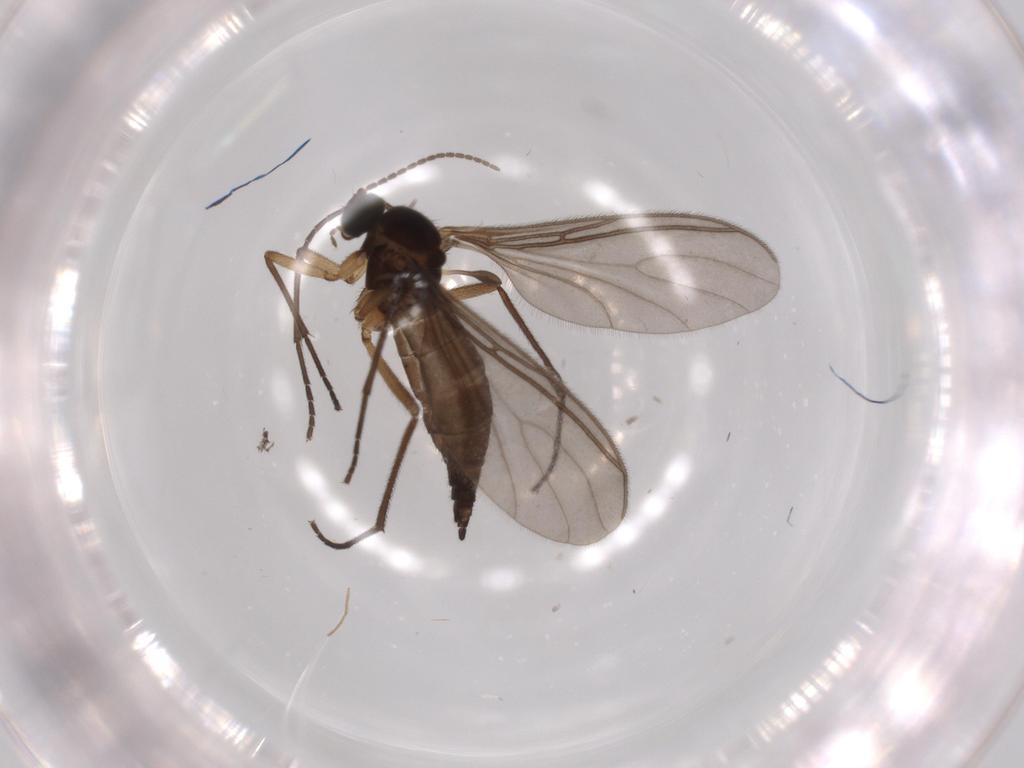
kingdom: Animalia
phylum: Arthropoda
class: Insecta
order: Diptera
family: Sciaridae
